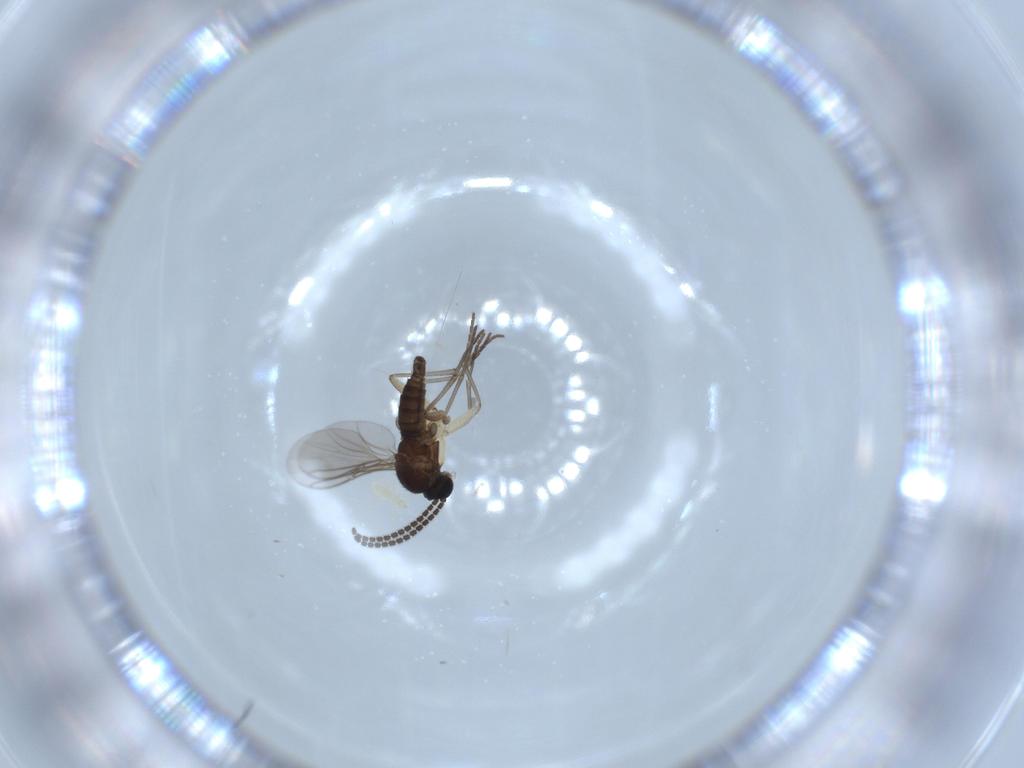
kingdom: Animalia
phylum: Arthropoda
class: Insecta
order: Diptera
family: Sciaridae
